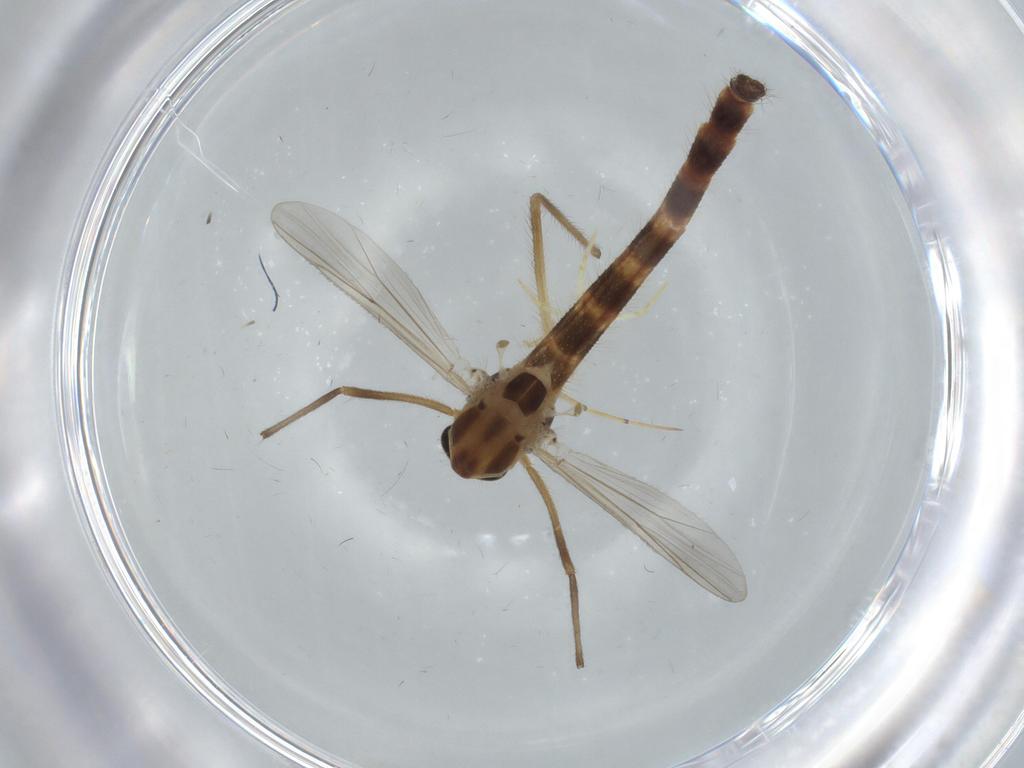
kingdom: Animalia
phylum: Arthropoda
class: Insecta
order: Diptera
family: Chironomidae
